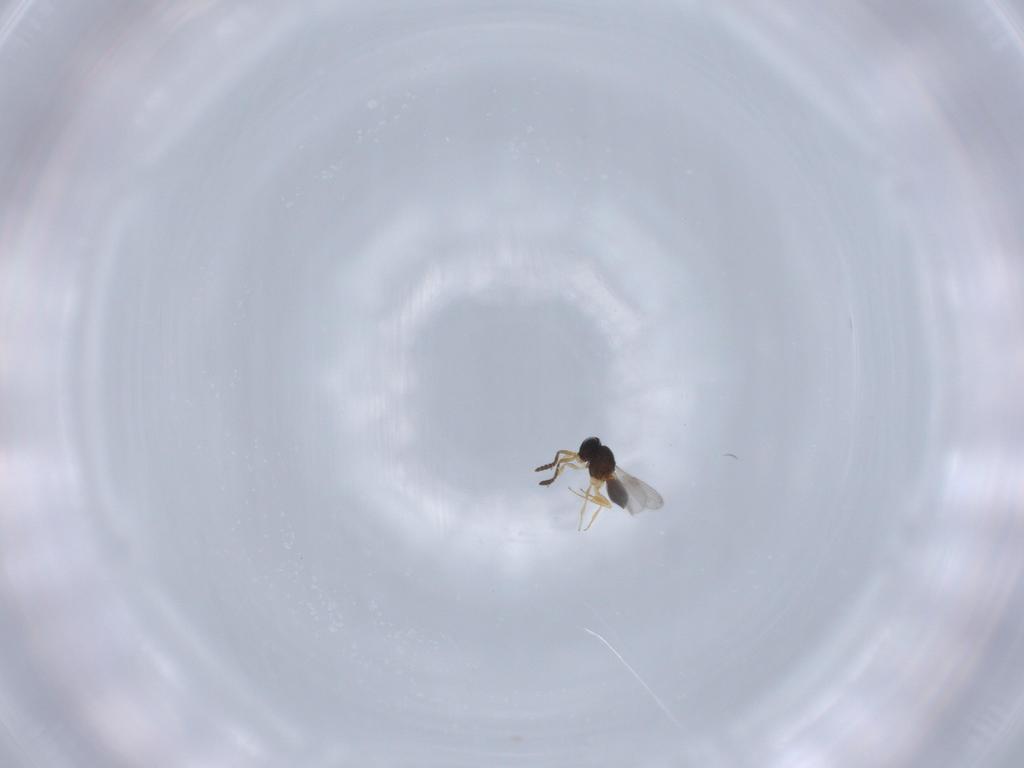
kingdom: Animalia
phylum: Arthropoda
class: Insecta
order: Hymenoptera
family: Scelionidae
